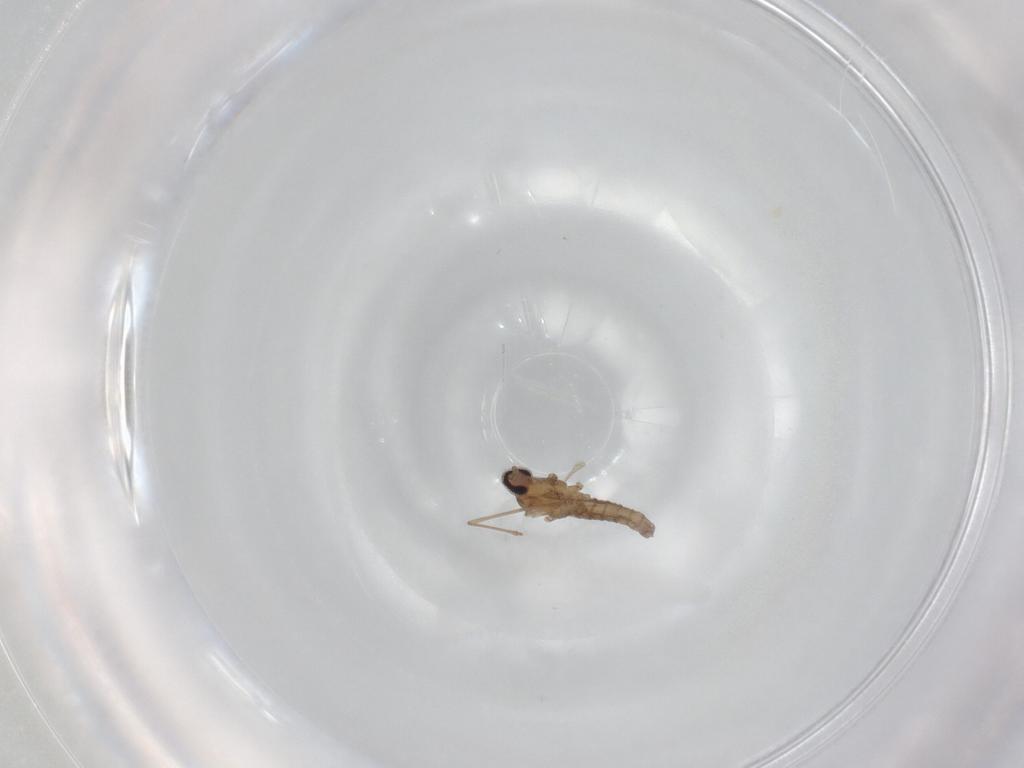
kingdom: Animalia
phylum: Arthropoda
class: Insecta
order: Diptera
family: Cecidomyiidae
